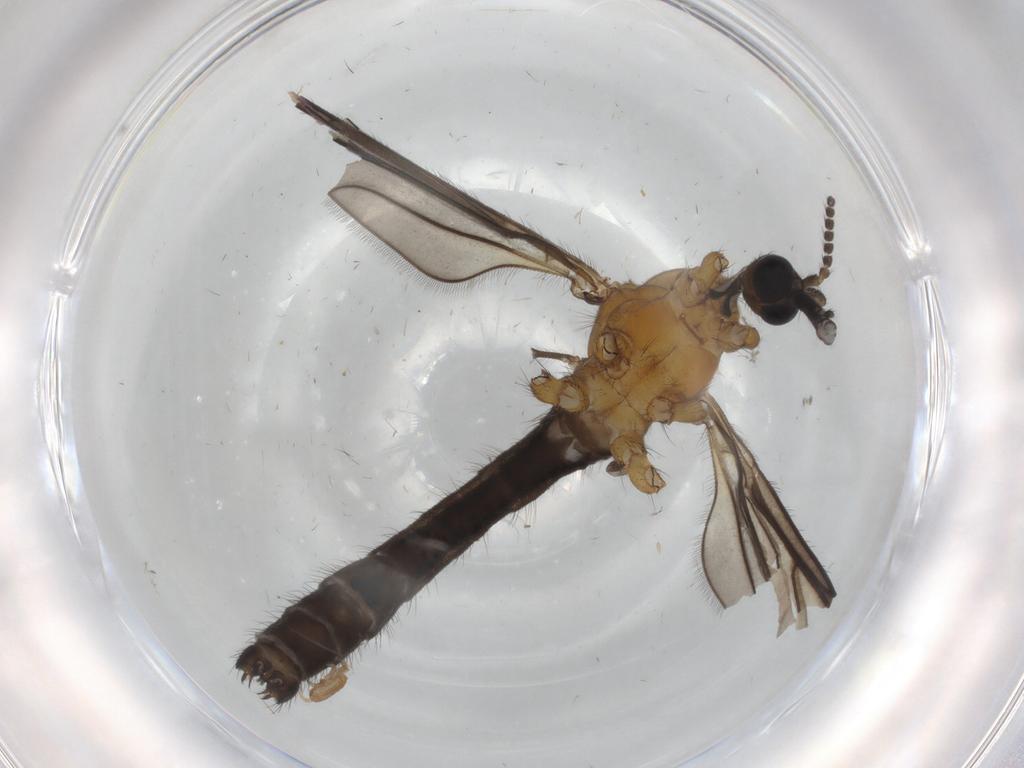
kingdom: Animalia
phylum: Arthropoda
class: Insecta
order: Diptera
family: Limoniidae
